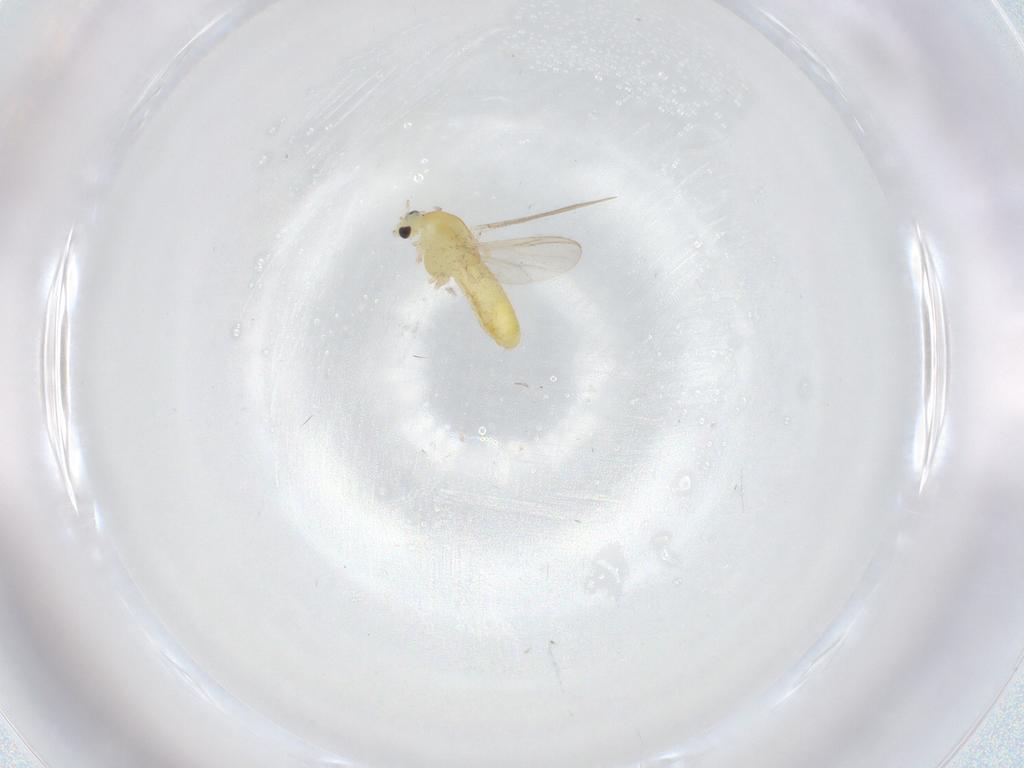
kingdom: Animalia
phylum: Arthropoda
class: Insecta
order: Diptera
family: Chironomidae
